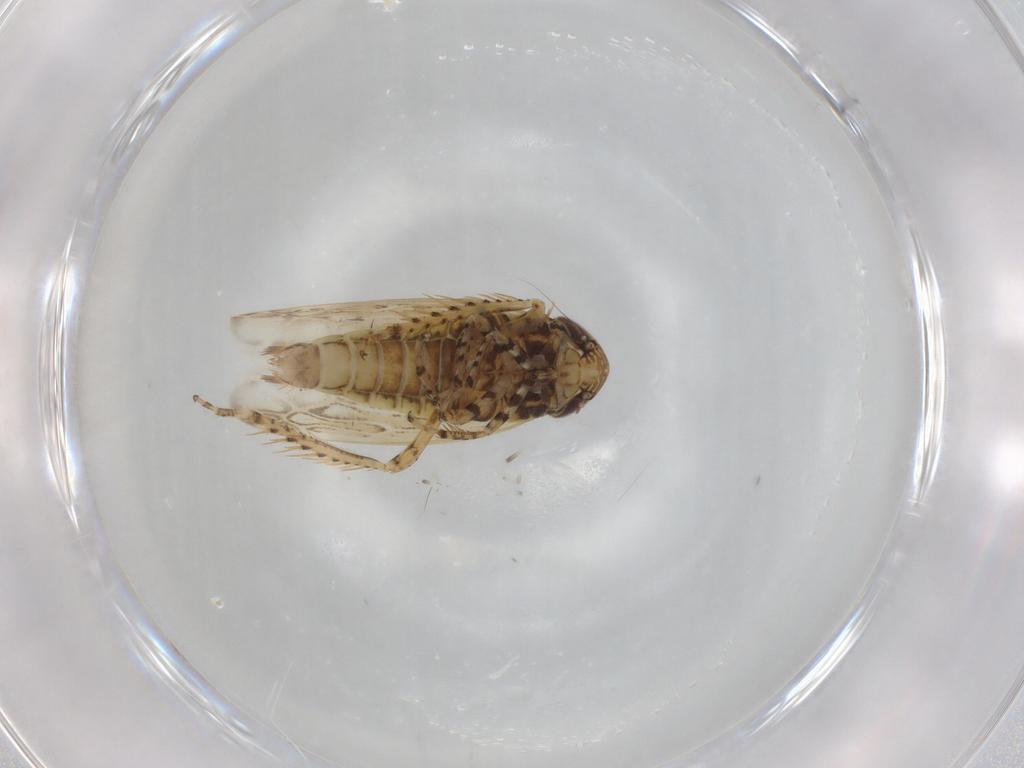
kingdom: Animalia
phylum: Arthropoda
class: Insecta
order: Hemiptera
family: Cicadellidae
